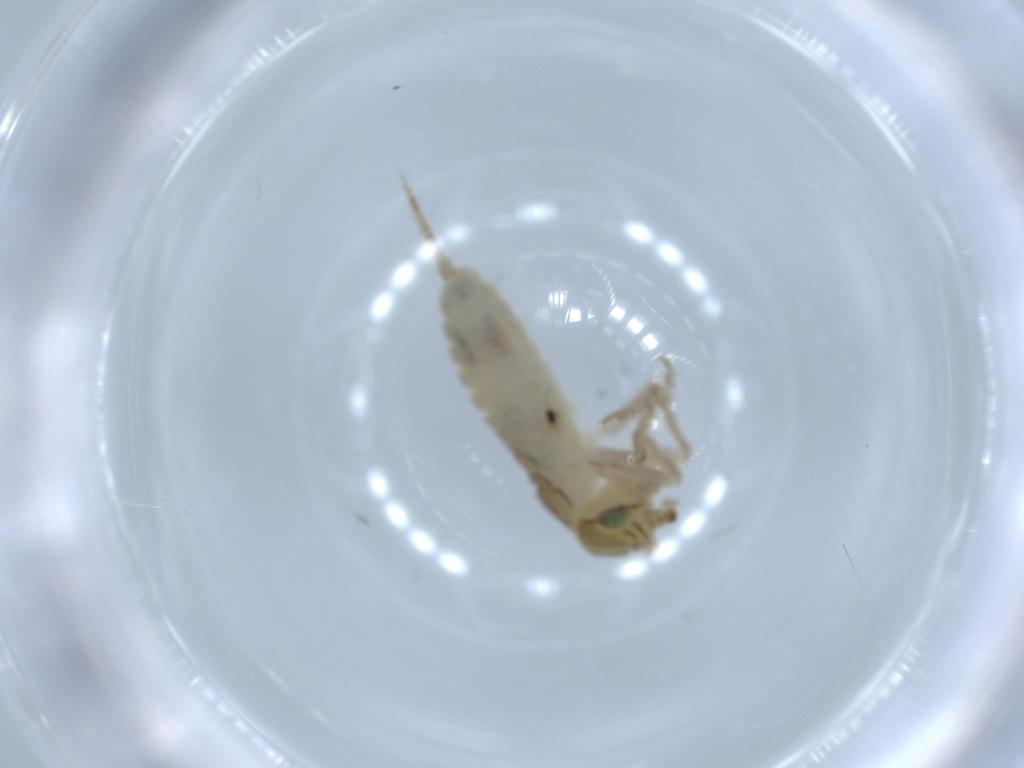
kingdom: Animalia
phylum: Arthropoda
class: Insecta
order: Orthoptera
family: Gryllidae
